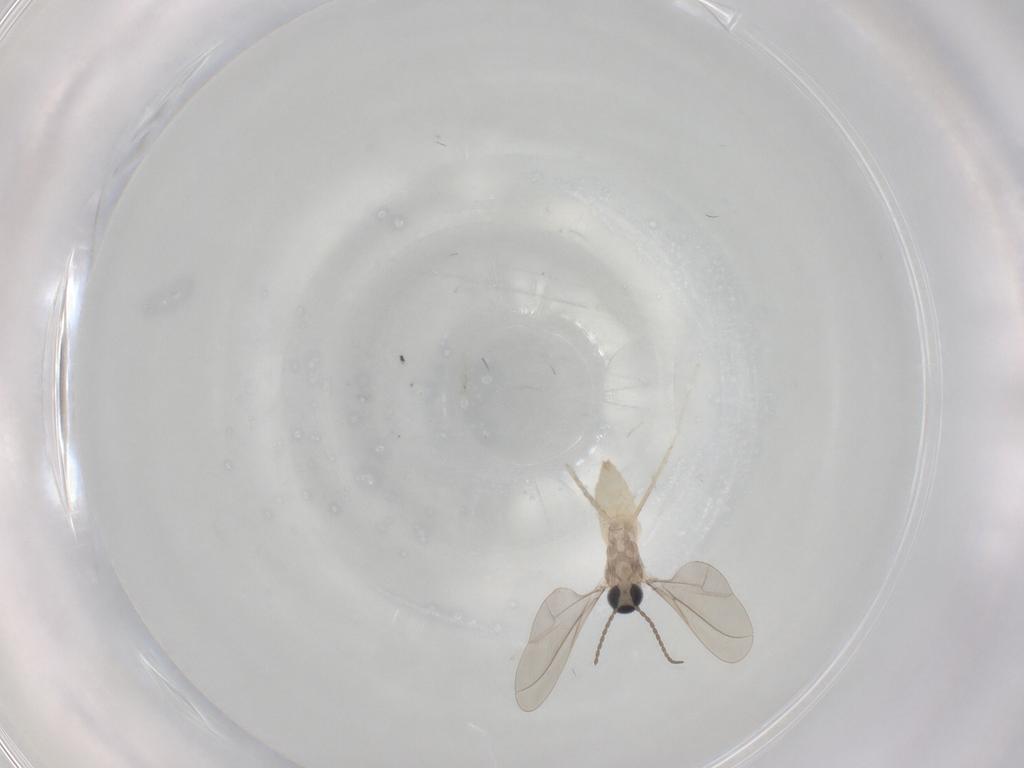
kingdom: Animalia
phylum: Arthropoda
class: Insecta
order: Diptera
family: Cecidomyiidae
